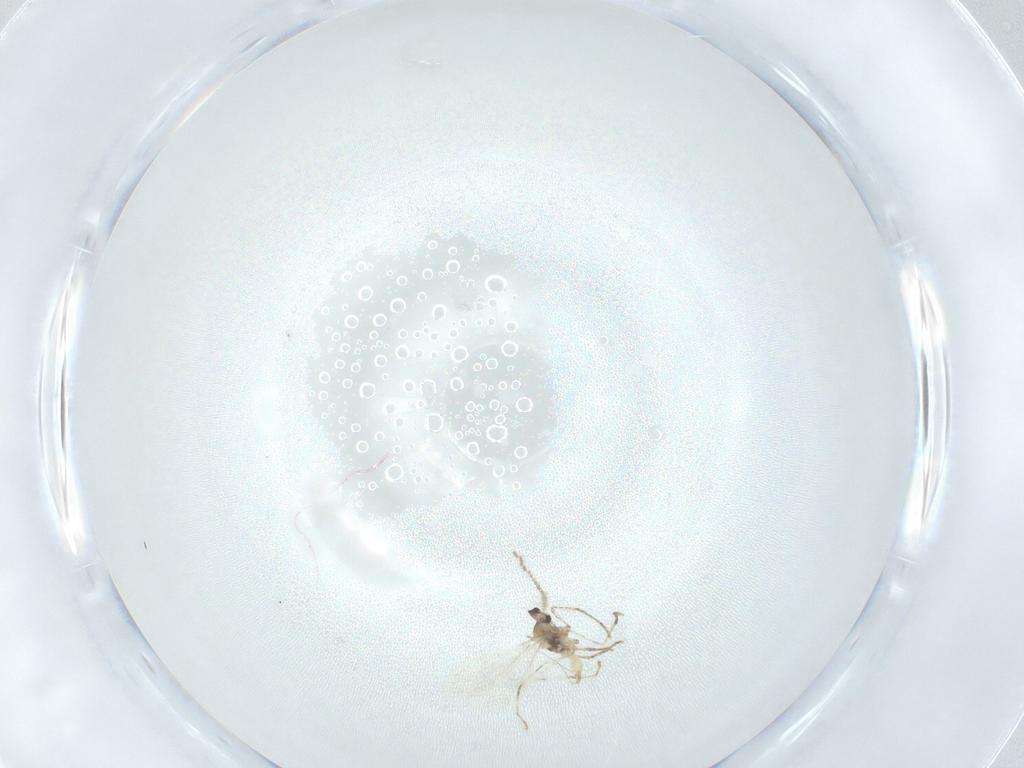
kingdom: Animalia
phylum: Arthropoda
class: Insecta
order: Diptera
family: Cecidomyiidae
